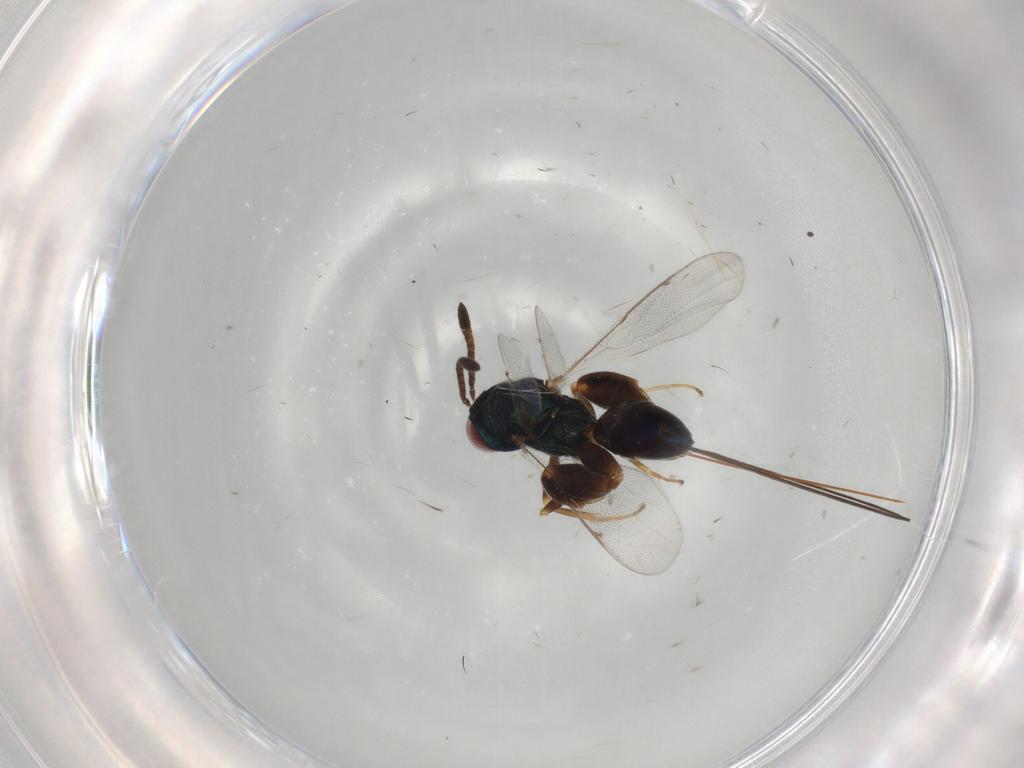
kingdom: Animalia
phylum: Arthropoda
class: Insecta
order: Hymenoptera
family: Torymidae
